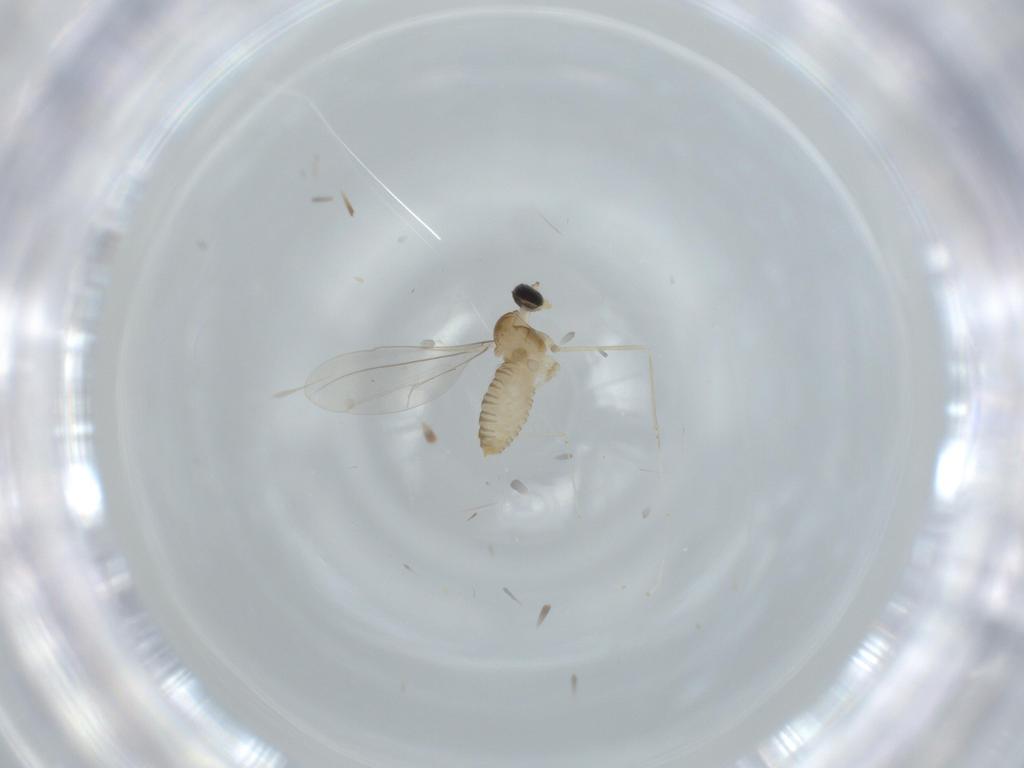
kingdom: Animalia
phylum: Arthropoda
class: Insecta
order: Diptera
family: Cecidomyiidae
